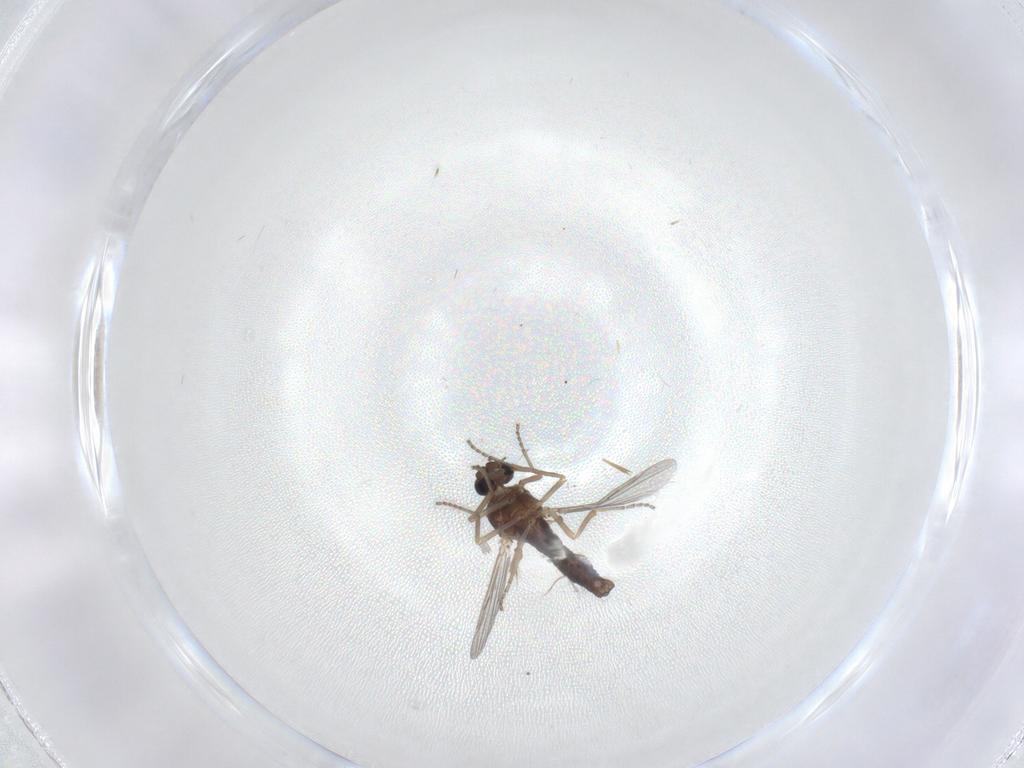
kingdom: Animalia
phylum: Arthropoda
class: Insecta
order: Diptera
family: Ceratopogonidae
